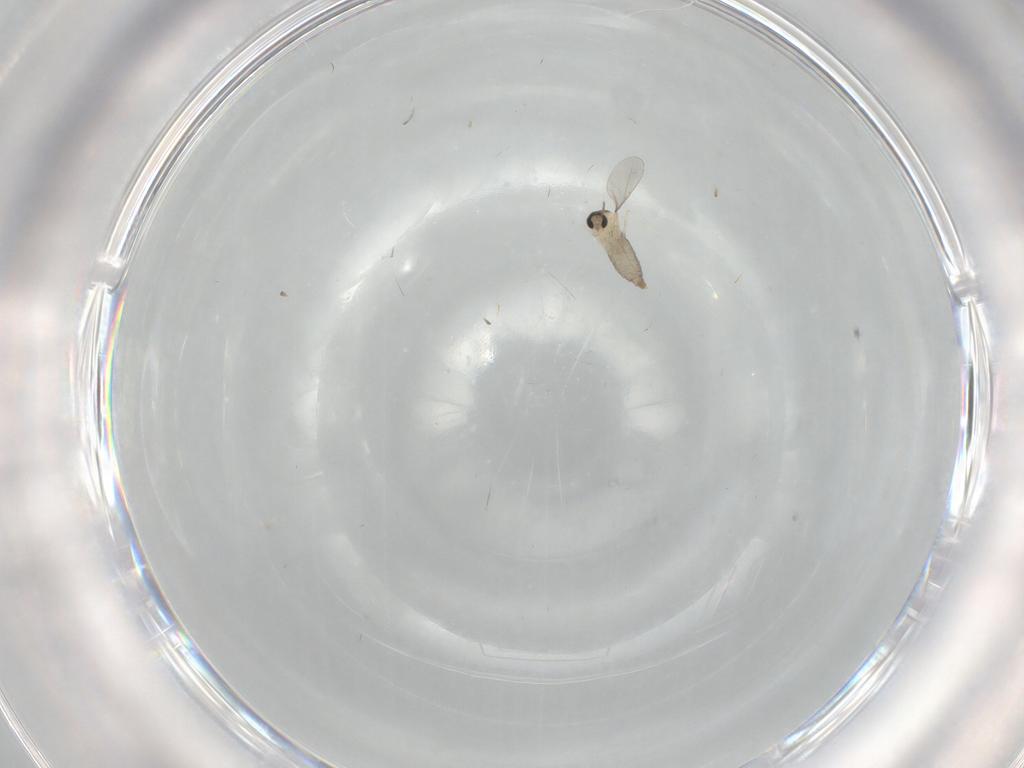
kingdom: Animalia
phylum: Arthropoda
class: Insecta
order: Diptera
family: Cecidomyiidae
